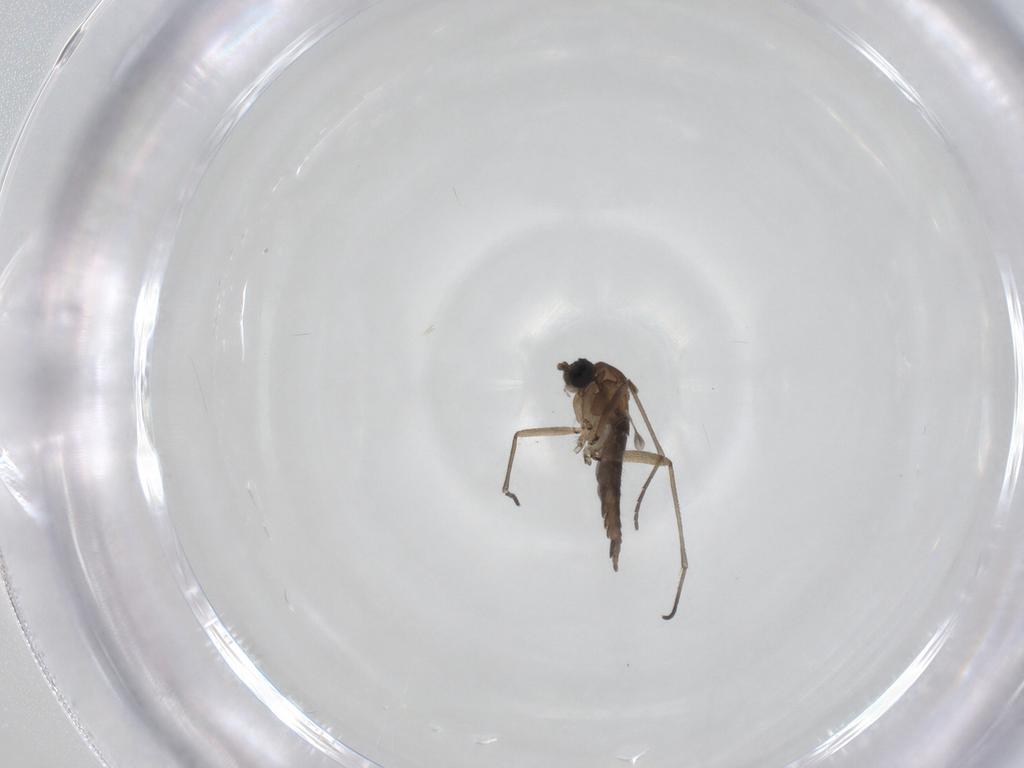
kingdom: Animalia
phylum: Arthropoda
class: Insecta
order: Diptera
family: Sciaridae
